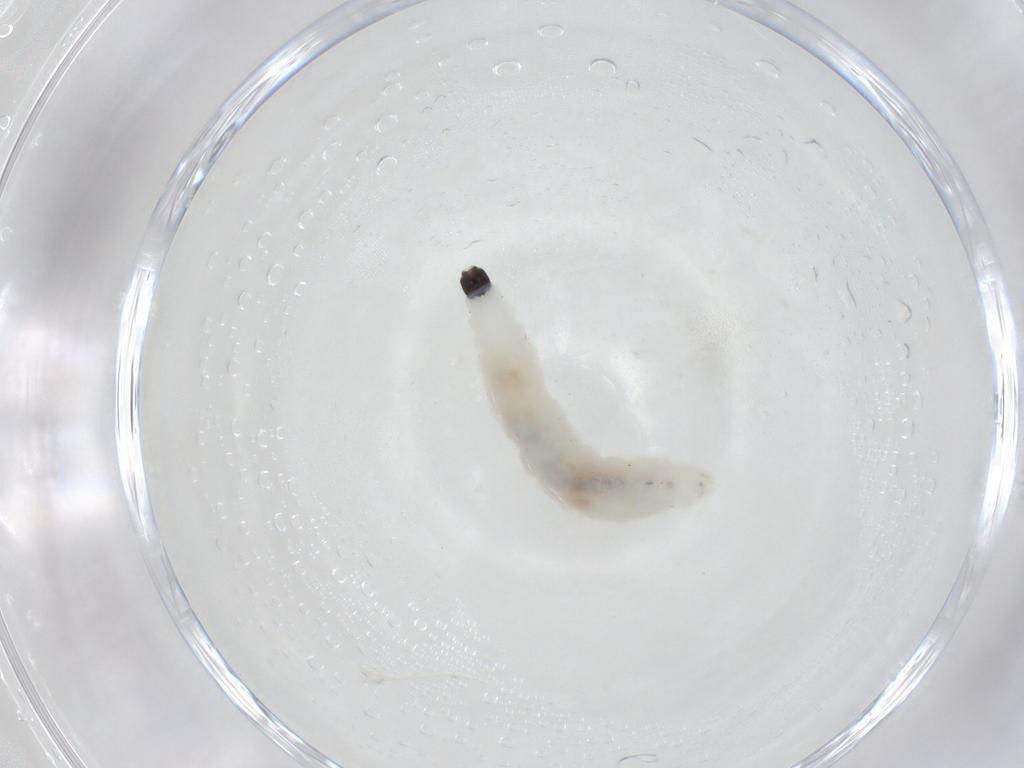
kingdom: Animalia
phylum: Arthropoda
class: Insecta
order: Diptera
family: Sciaridae
